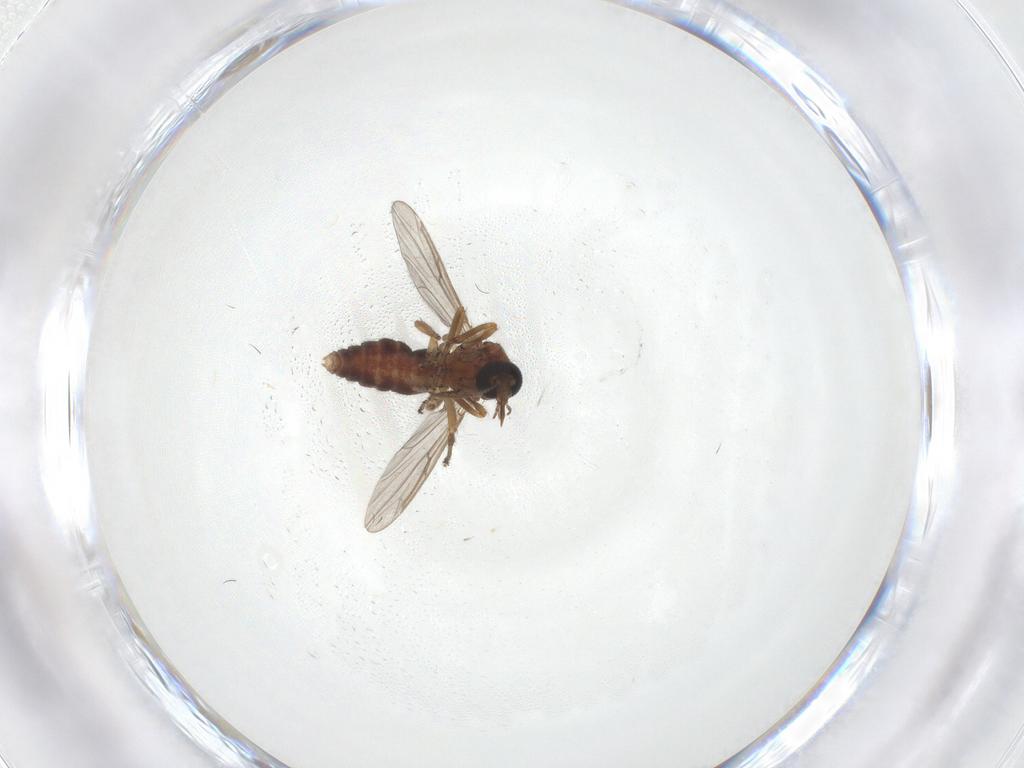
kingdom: Animalia
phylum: Arthropoda
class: Insecta
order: Diptera
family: Ceratopogonidae
